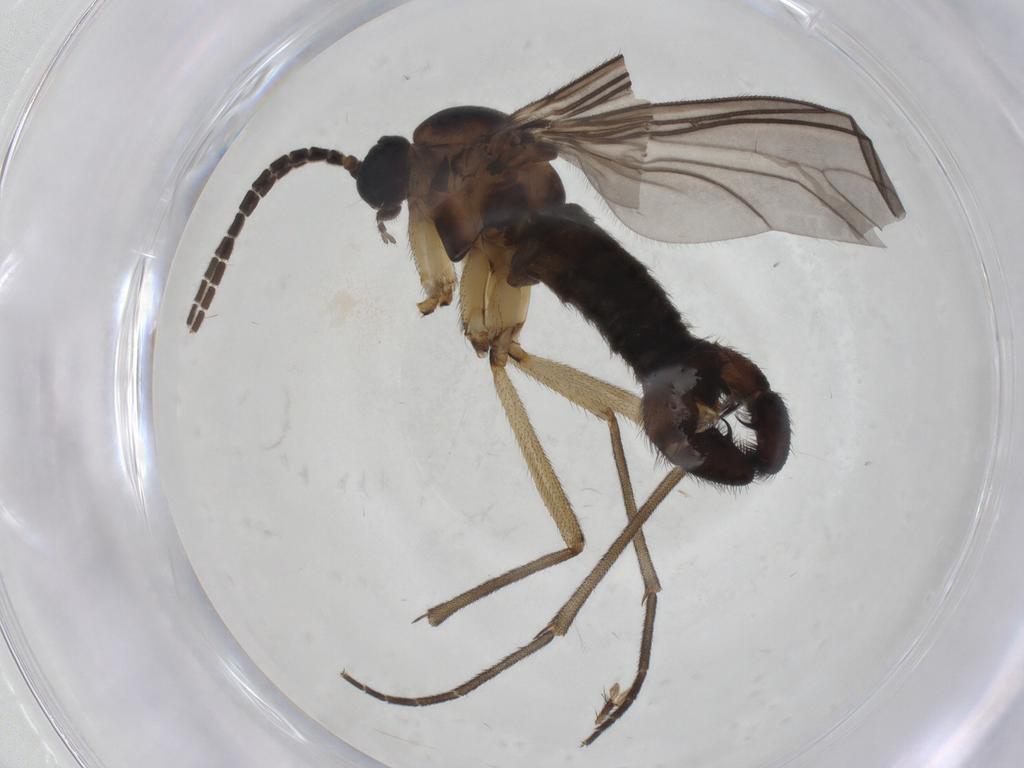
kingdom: Animalia
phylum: Arthropoda
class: Insecta
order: Diptera
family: Sciaridae
